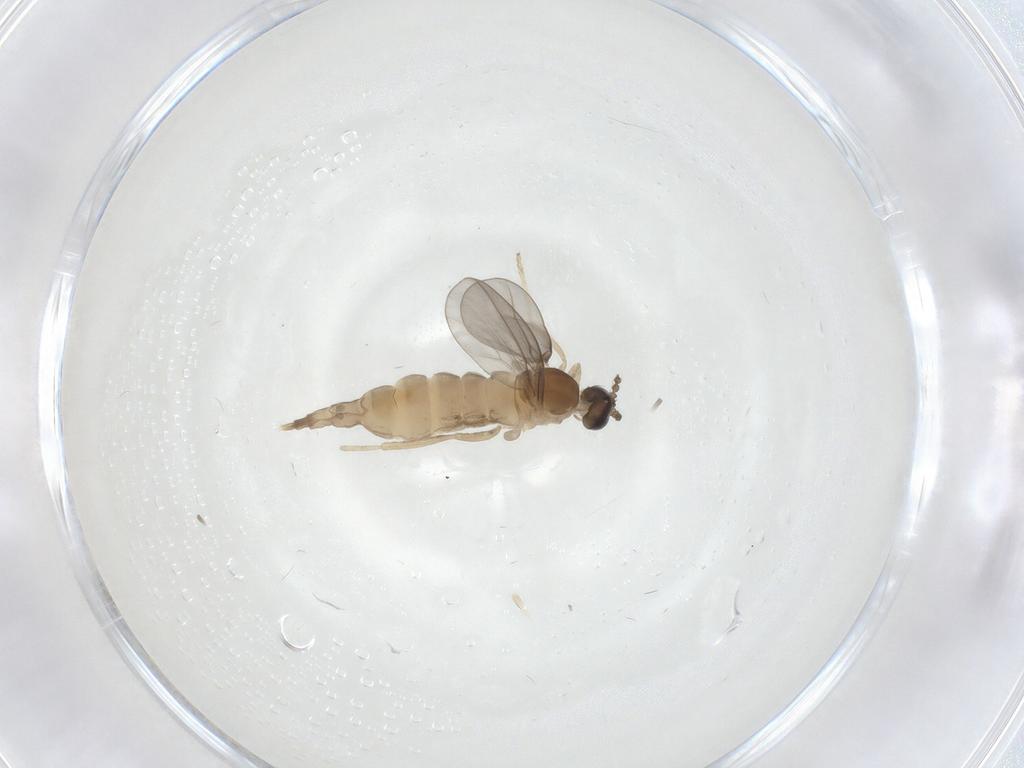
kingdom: Animalia
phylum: Arthropoda
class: Insecta
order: Diptera
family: Cecidomyiidae
